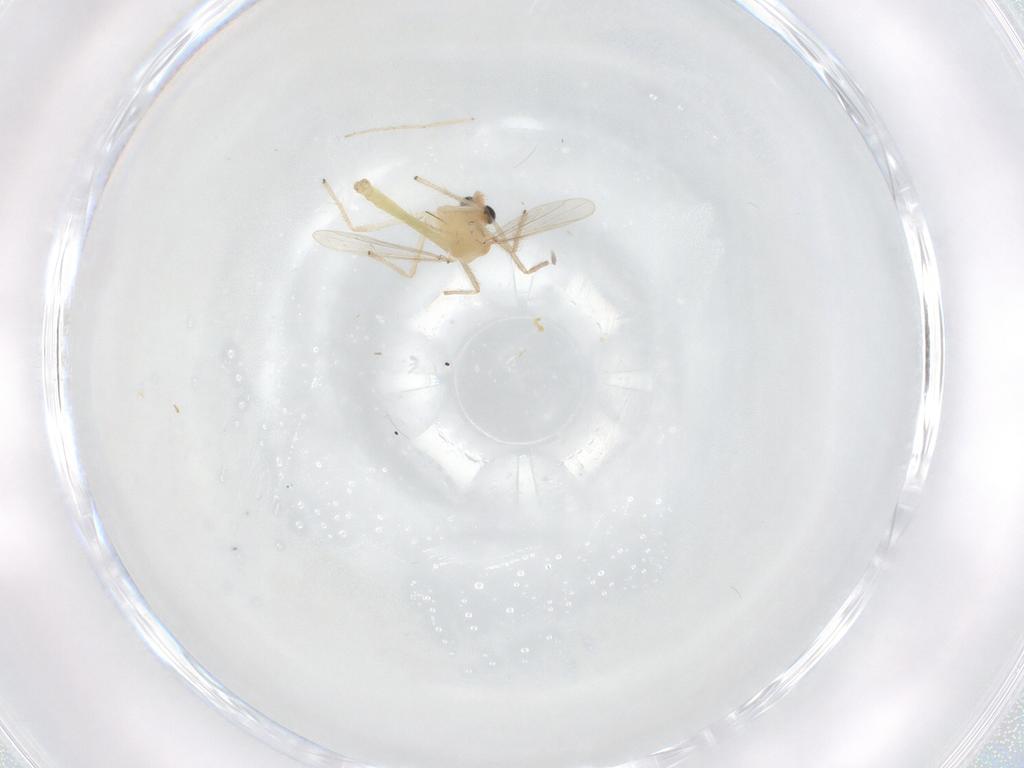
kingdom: Animalia
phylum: Arthropoda
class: Insecta
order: Diptera
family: Chironomidae
